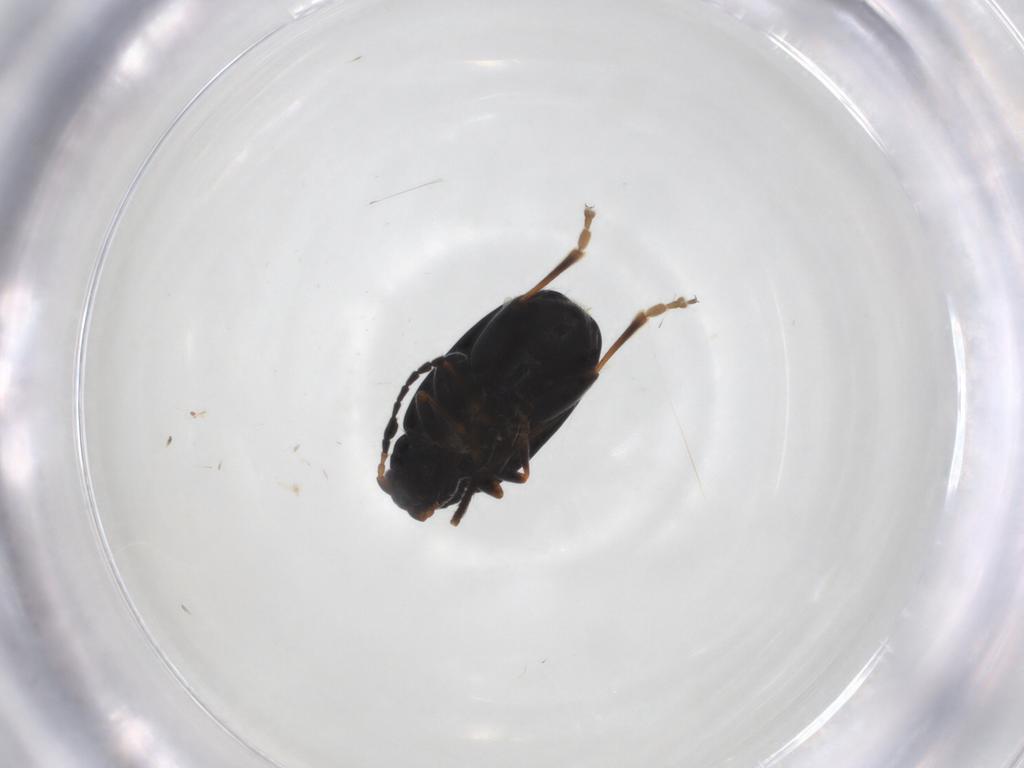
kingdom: Animalia
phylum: Arthropoda
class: Insecta
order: Coleoptera
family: Chrysomelidae
